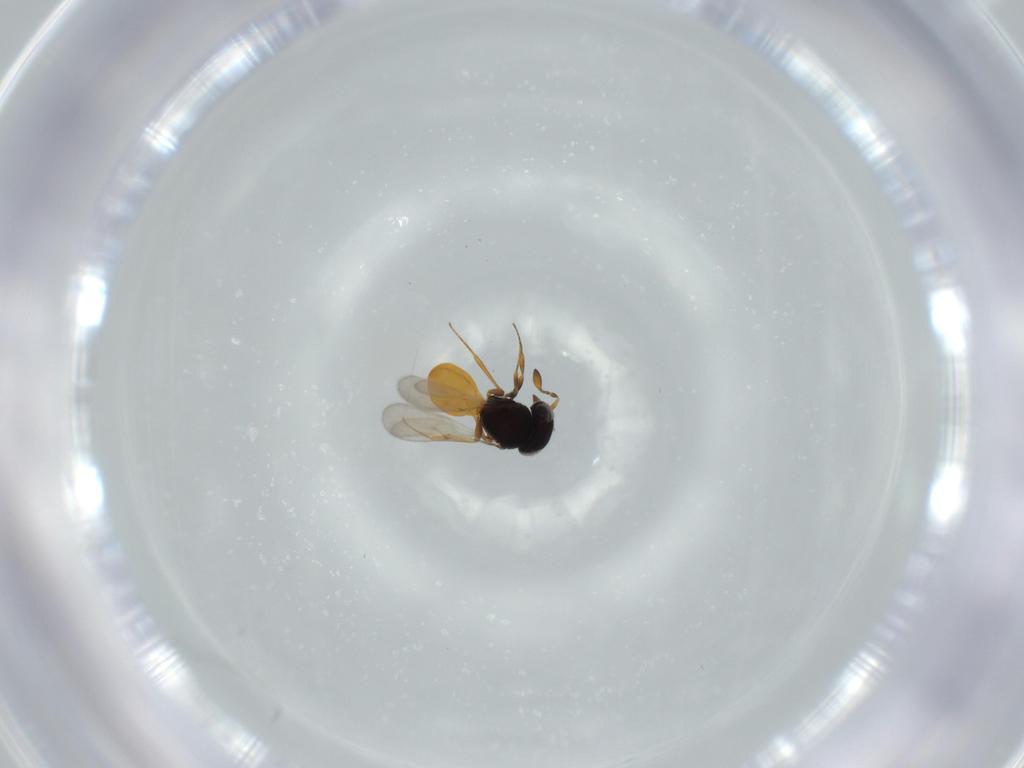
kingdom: Animalia
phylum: Arthropoda
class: Insecta
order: Hymenoptera
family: Scelionidae
